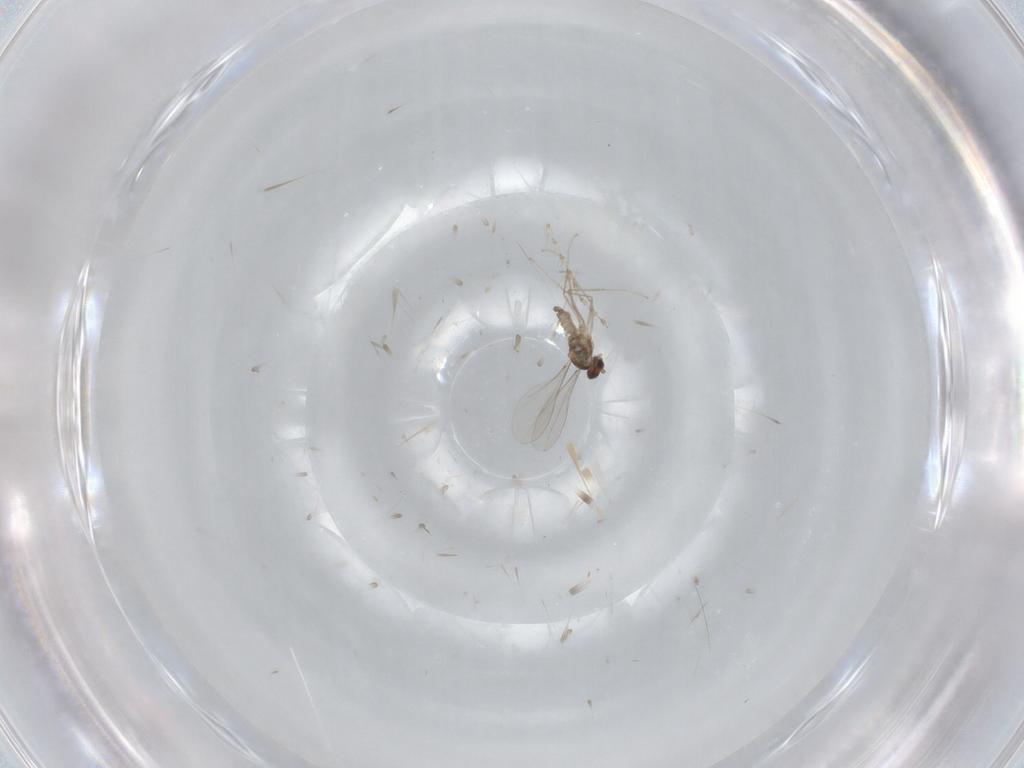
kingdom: Animalia
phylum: Arthropoda
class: Insecta
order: Diptera
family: Cecidomyiidae
